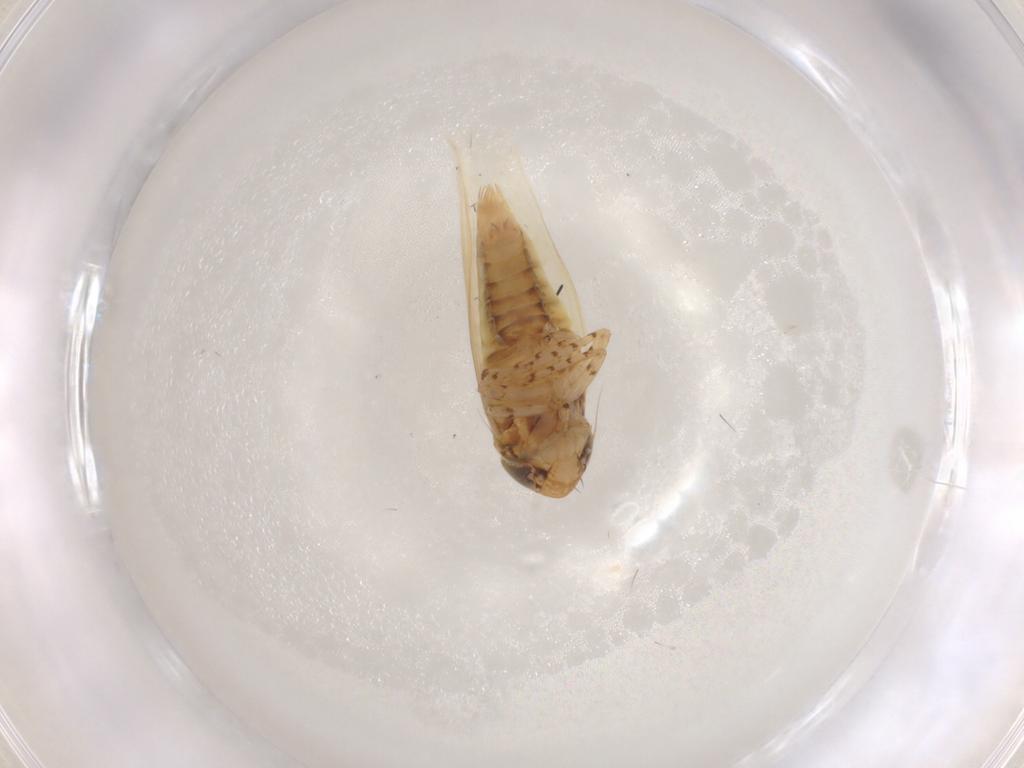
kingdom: Animalia
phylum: Arthropoda
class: Insecta
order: Hemiptera
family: Cicadellidae
